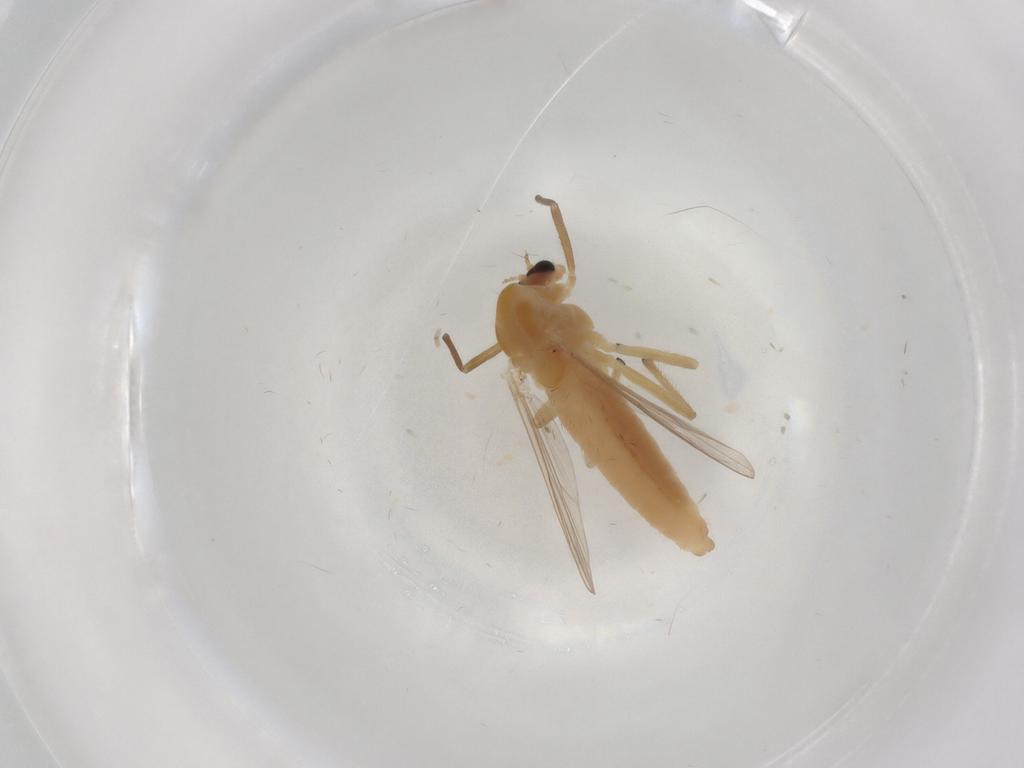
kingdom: Animalia
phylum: Arthropoda
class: Insecta
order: Diptera
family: Chironomidae
